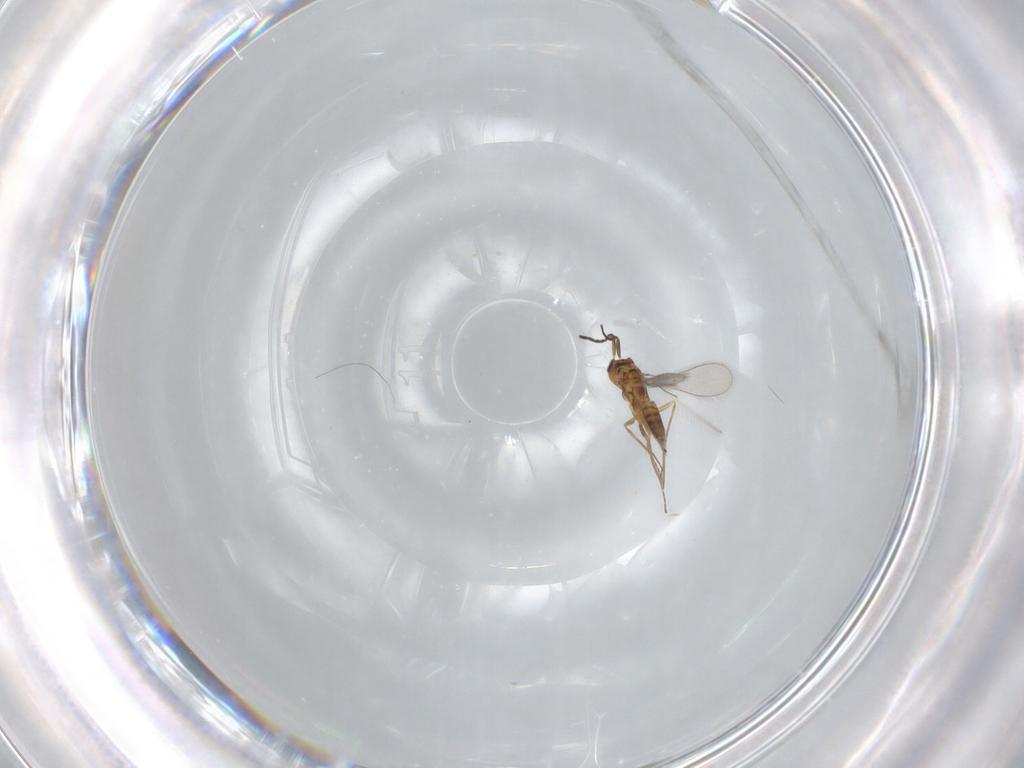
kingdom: Animalia
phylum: Arthropoda
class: Insecta
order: Hymenoptera
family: Mymaridae
